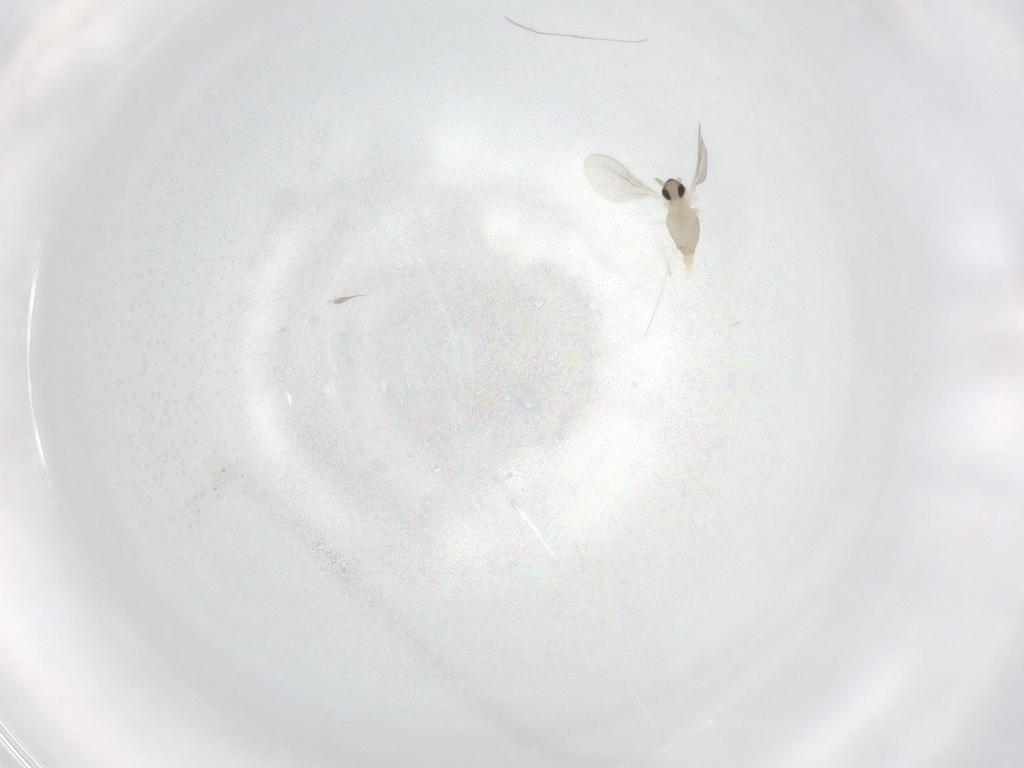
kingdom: Animalia
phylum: Arthropoda
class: Insecta
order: Diptera
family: Cecidomyiidae
